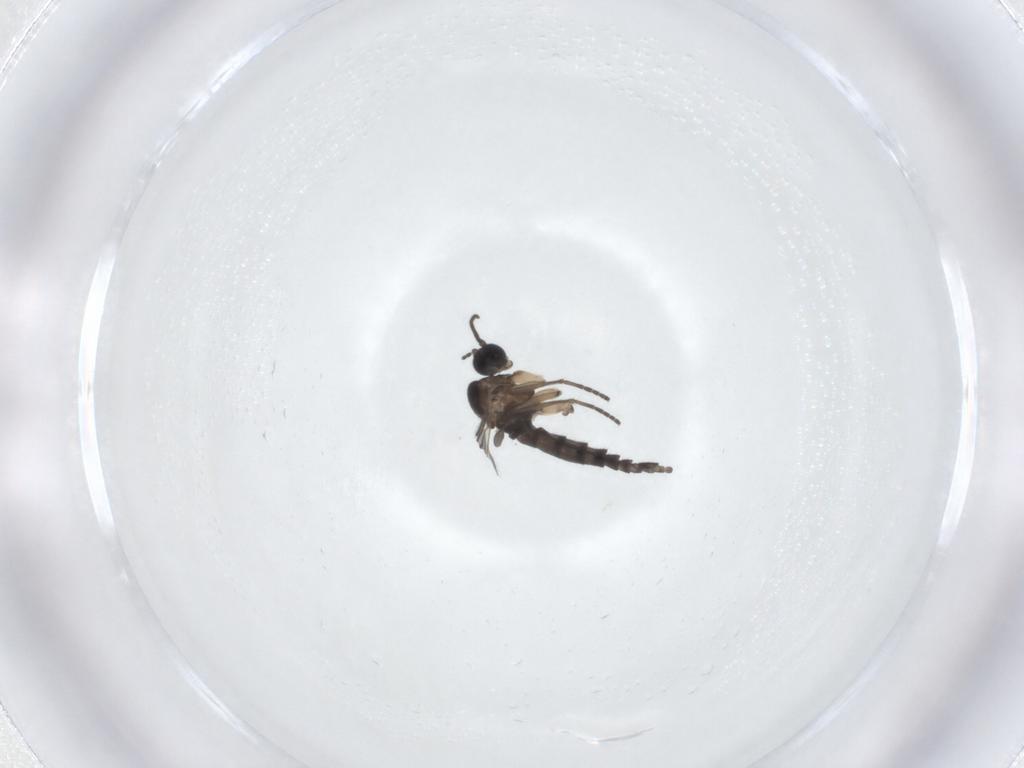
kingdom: Animalia
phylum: Arthropoda
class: Insecta
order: Diptera
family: Sciaridae
